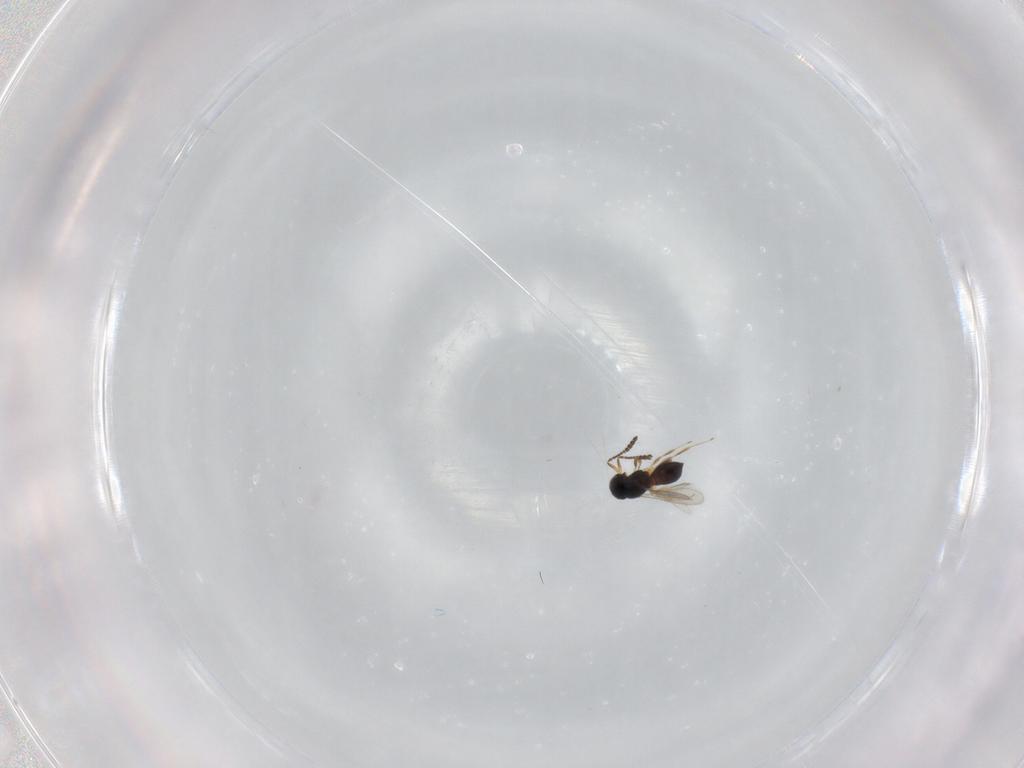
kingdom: Animalia
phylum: Arthropoda
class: Insecta
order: Hymenoptera
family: Scelionidae
